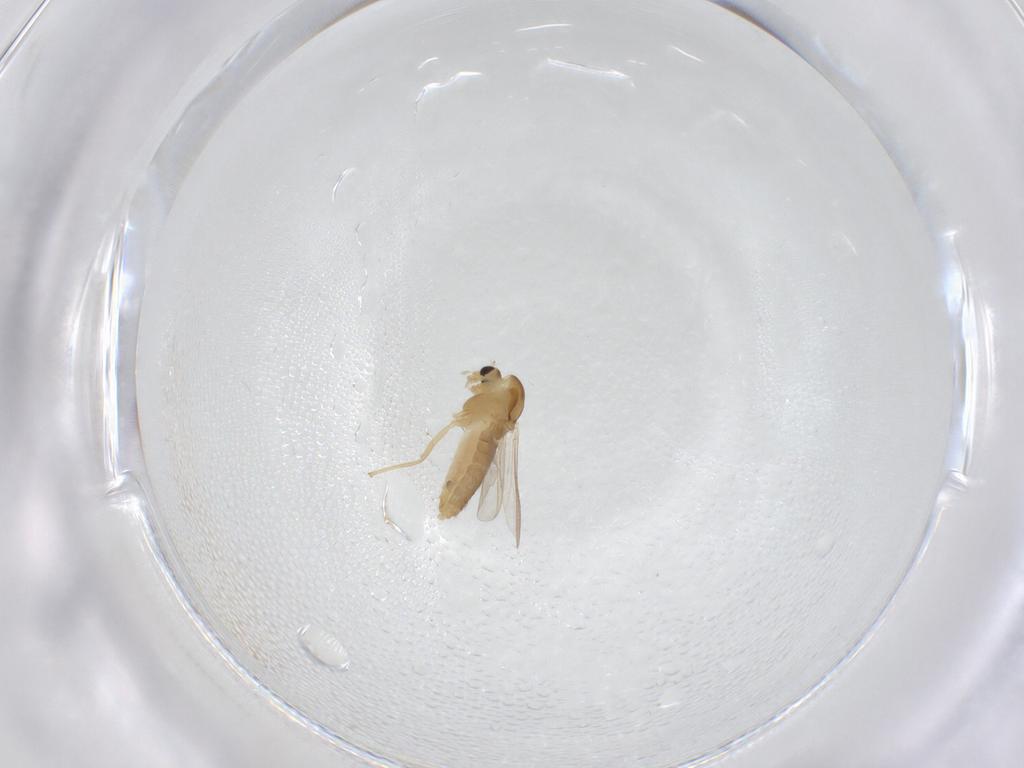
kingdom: Animalia
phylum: Arthropoda
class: Insecta
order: Diptera
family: Chironomidae
